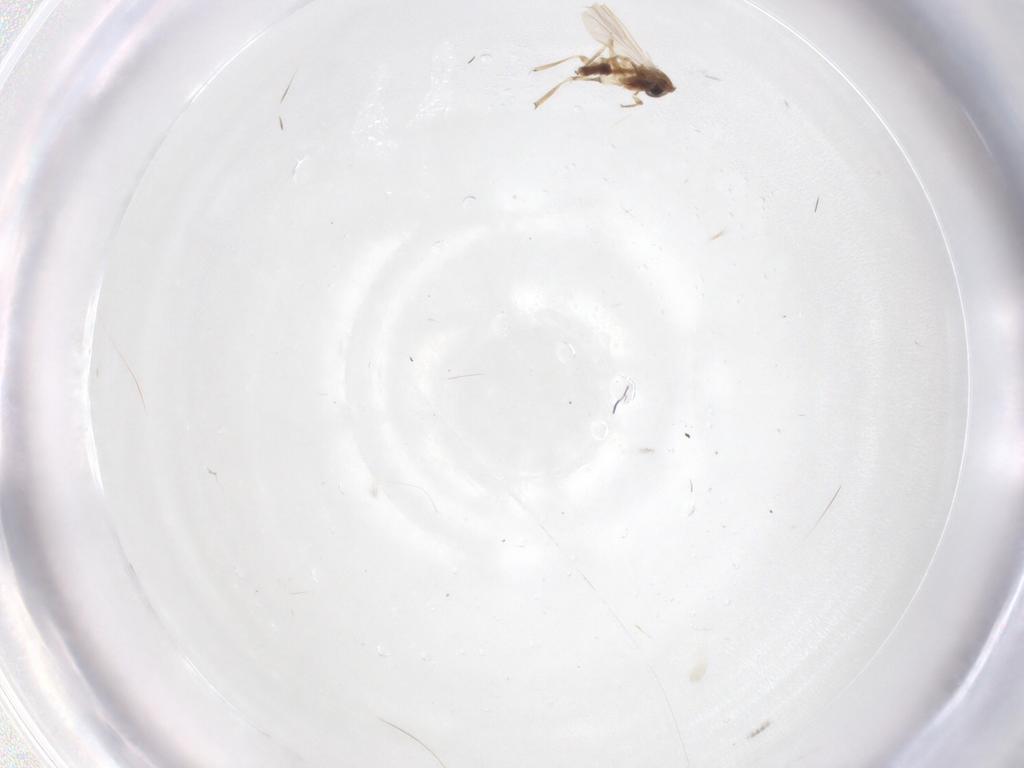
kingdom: Animalia
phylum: Arthropoda
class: Insecta
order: Diptera
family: Chironomidae
